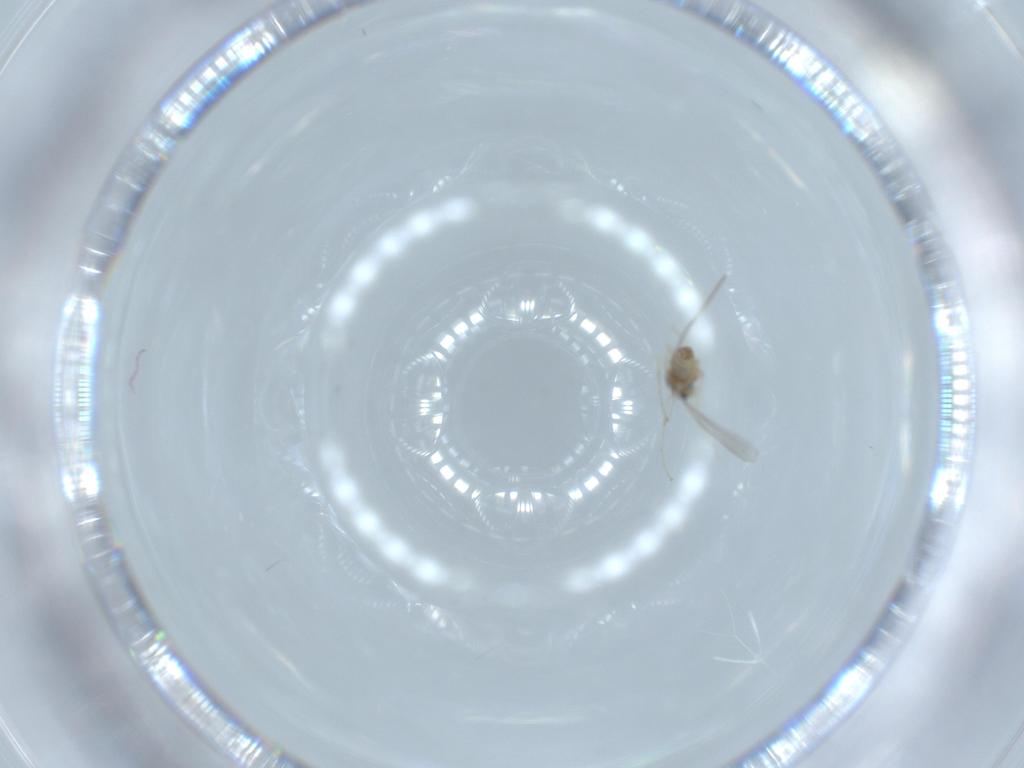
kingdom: Animalia
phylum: Arthropoda
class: Insecta
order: Diptera
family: Cecidomyiidae
